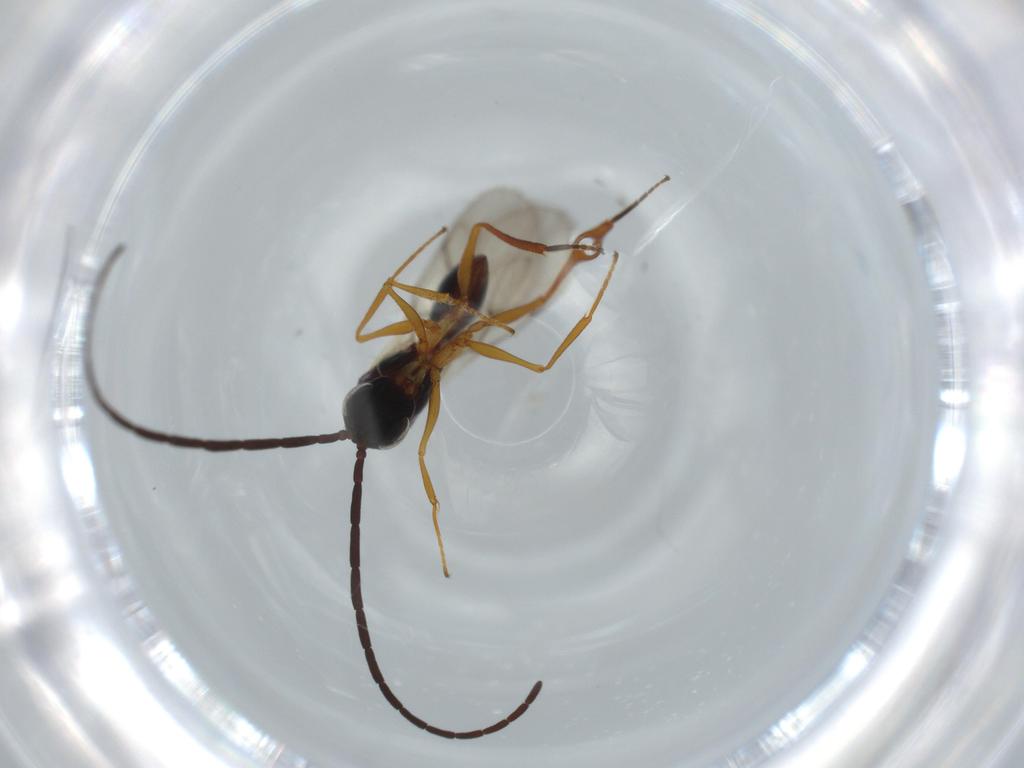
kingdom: Animalia
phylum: Arthropoda
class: Insecta
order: Hymenoptera
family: Figitidae
